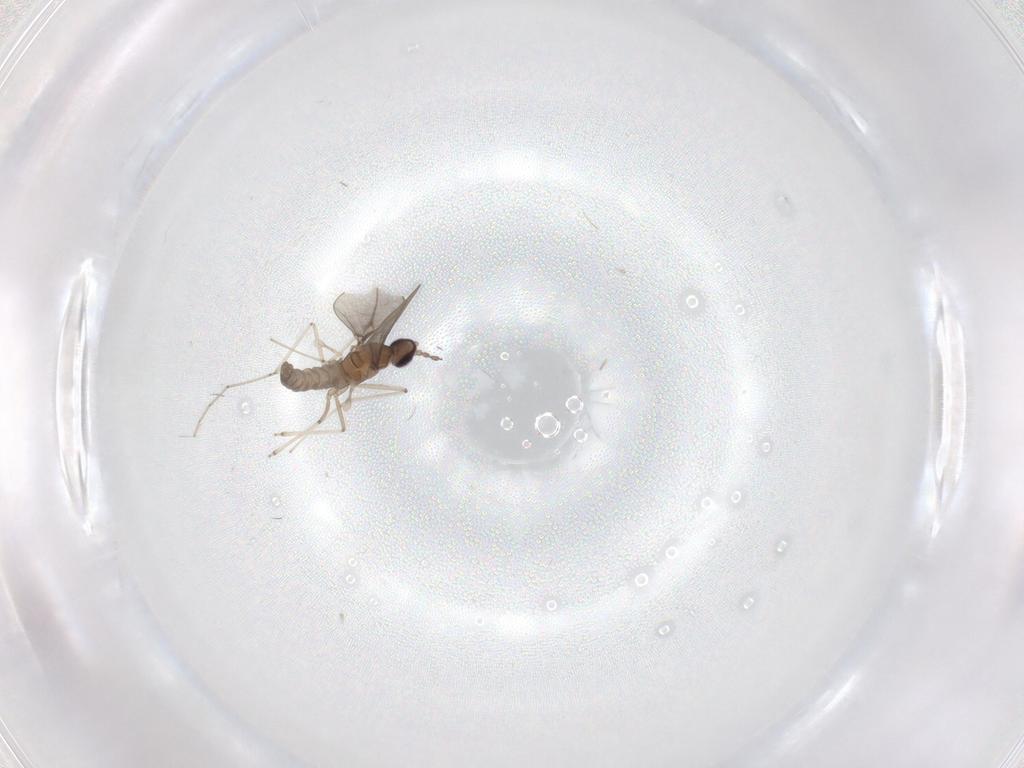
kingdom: Animalia
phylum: Arthropoda
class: Insecta
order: Diptera
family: Cecidomyiidae
